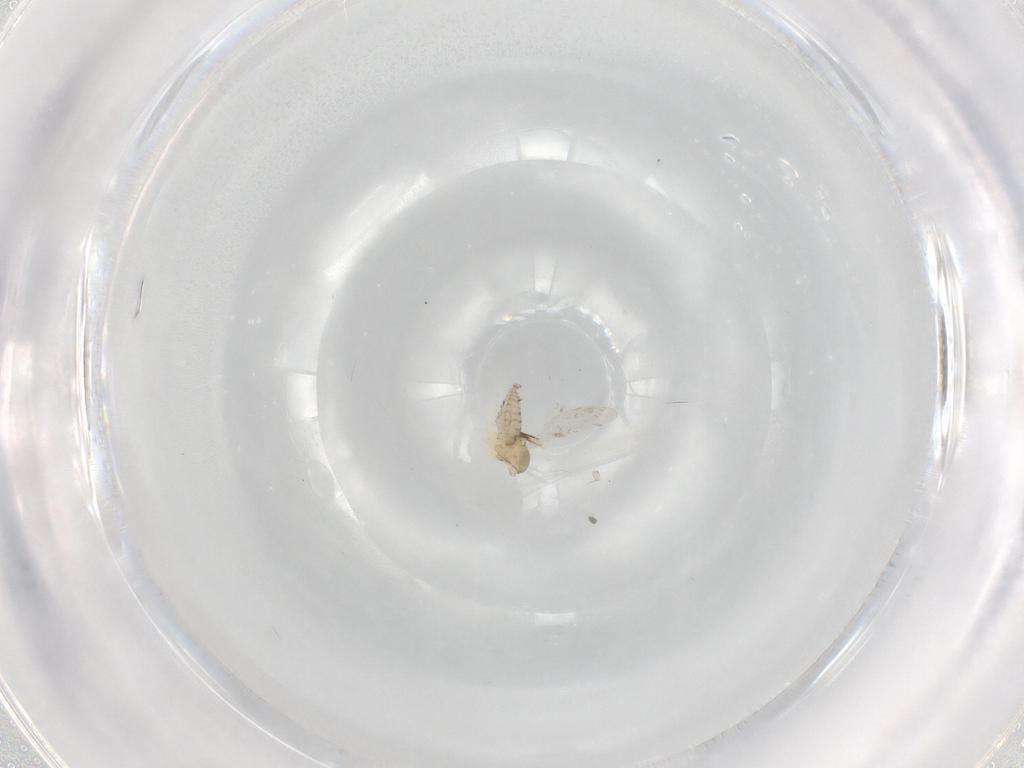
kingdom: Animalia
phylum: Arthropoda
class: Insecta
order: Diptera
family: Cecidomyiidae
